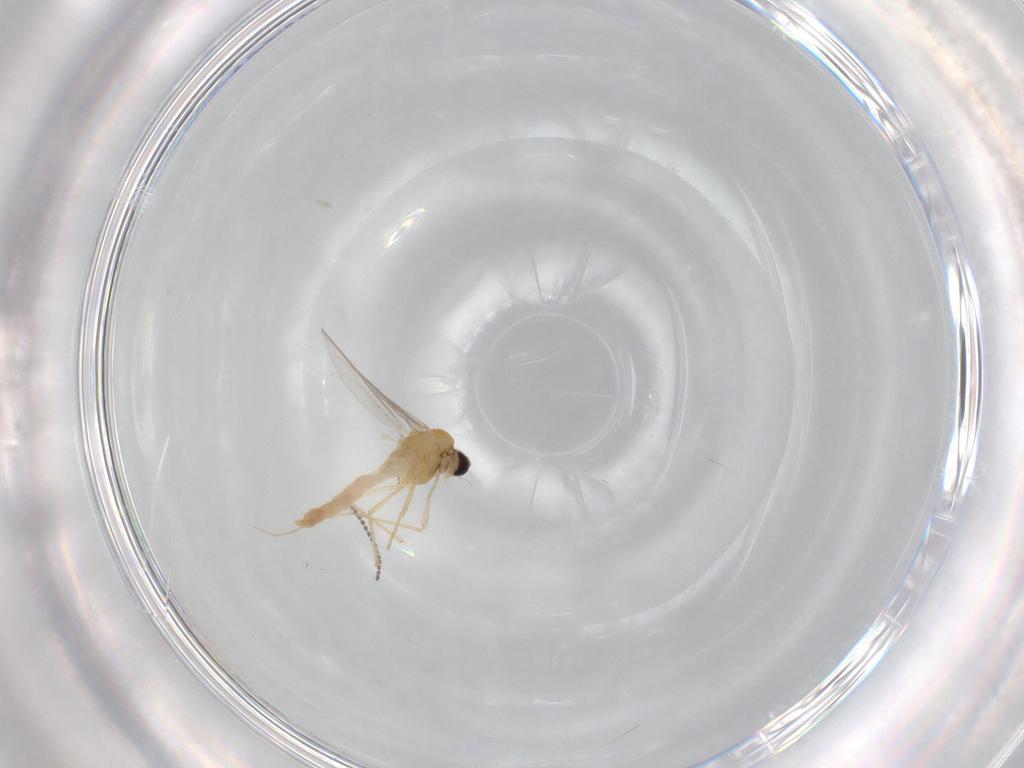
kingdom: Animalia
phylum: Arthropoda
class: Insecta
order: Diptera
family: Chironomidae
